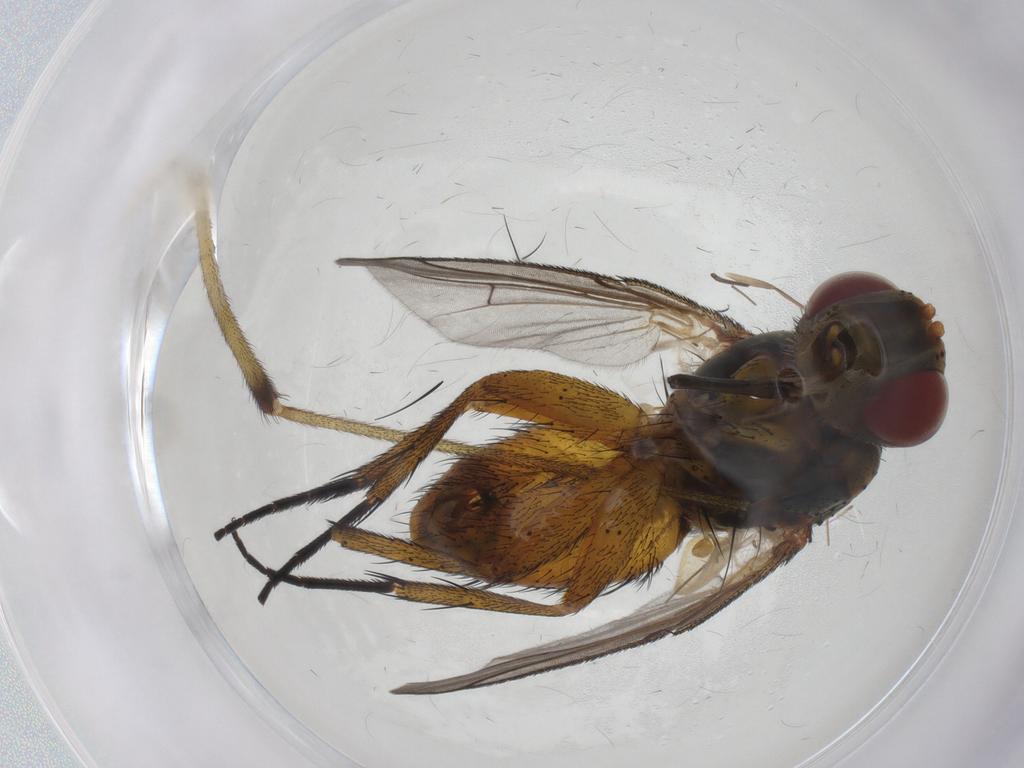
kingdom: Animalia
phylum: Arthropoda
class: Insecta
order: Diptera
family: Tachinidae
